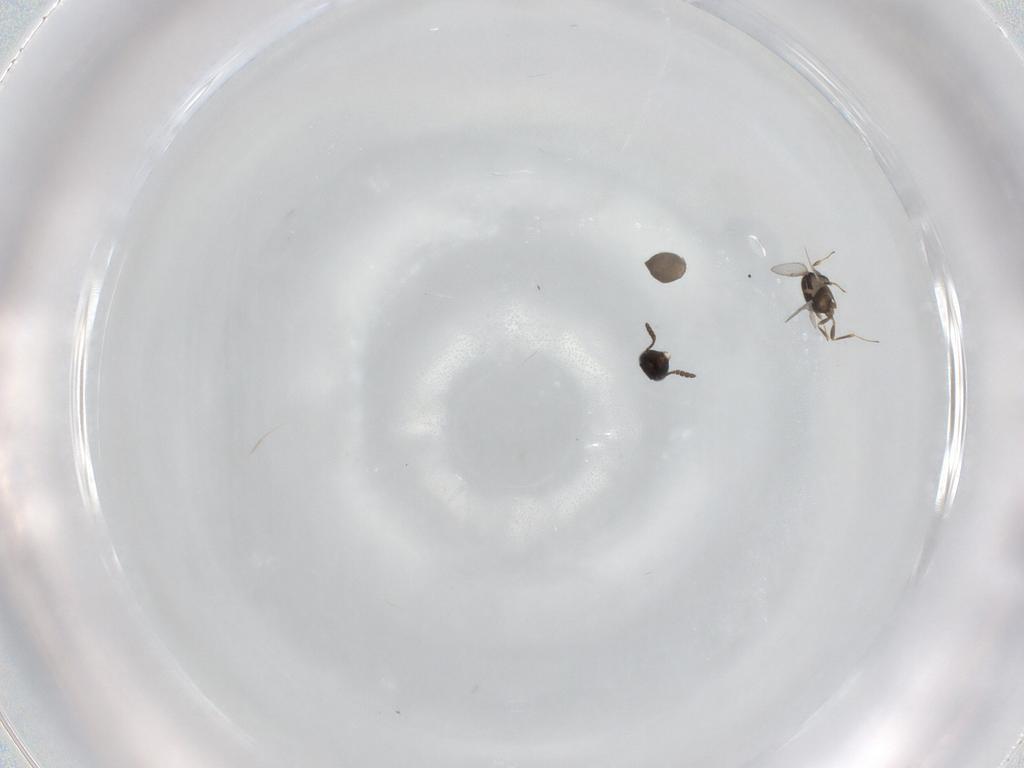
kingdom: Animalia
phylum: Arthropoda
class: Insecta
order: Hymenoptera
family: Scelionidae
